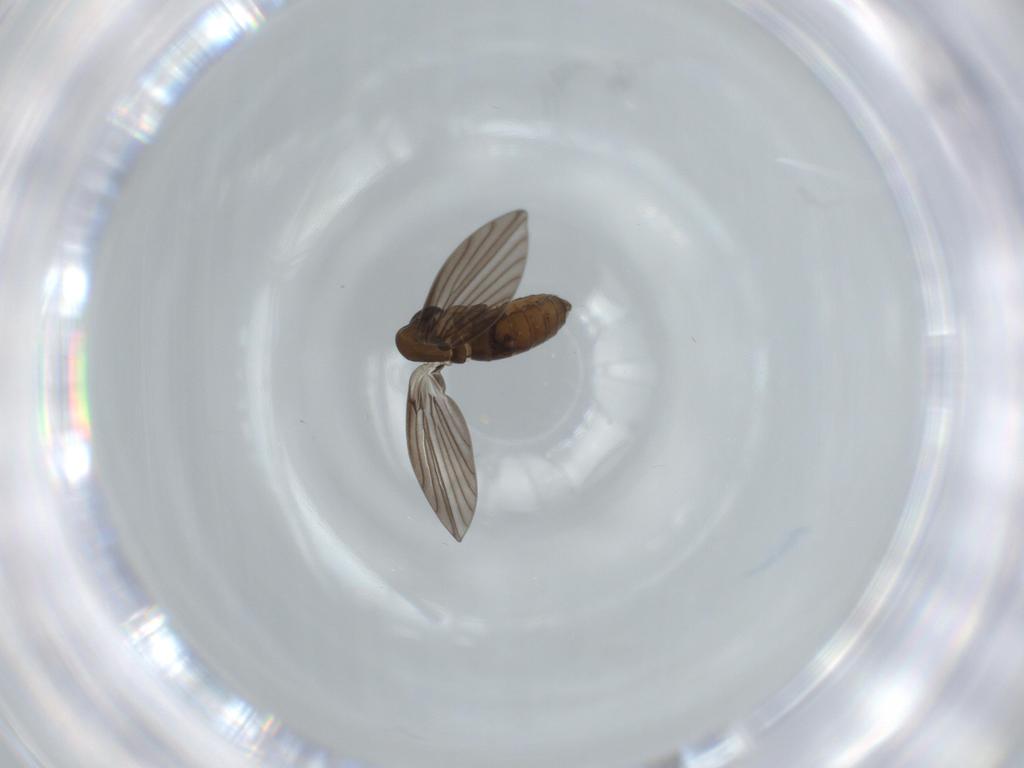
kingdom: Animalia
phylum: Arthropoda
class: Insecta
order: Diptera
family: Psychodidae
